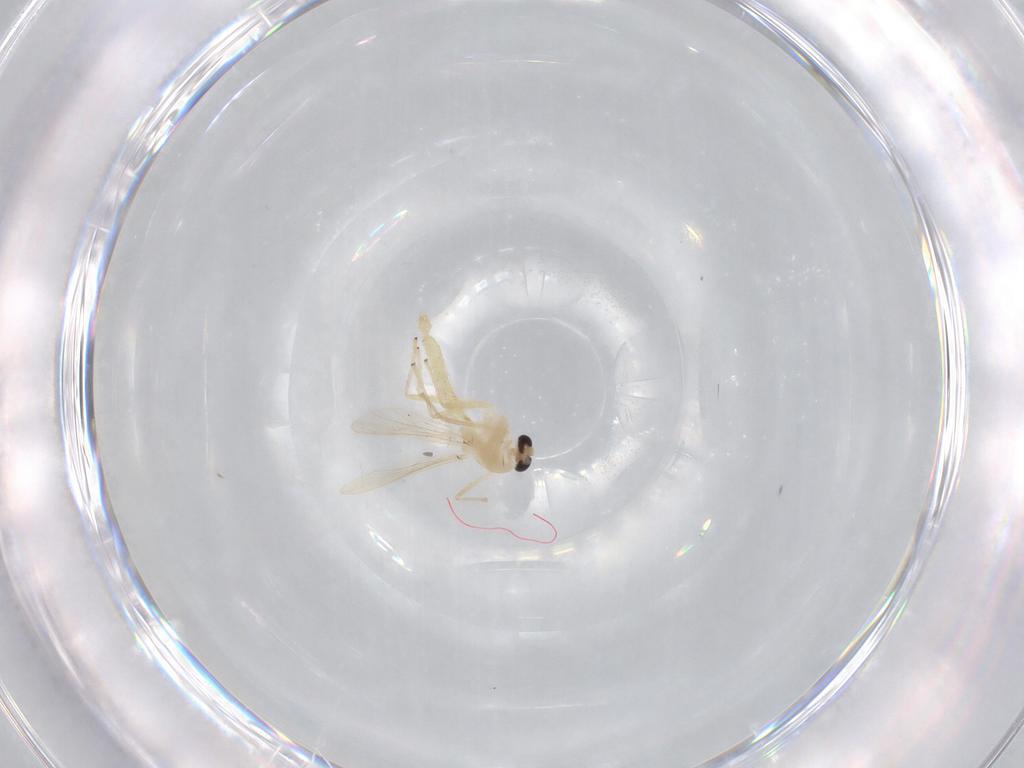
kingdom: Animalia
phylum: Arthropoda
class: Insecta
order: Diptera
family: Chironomidae
